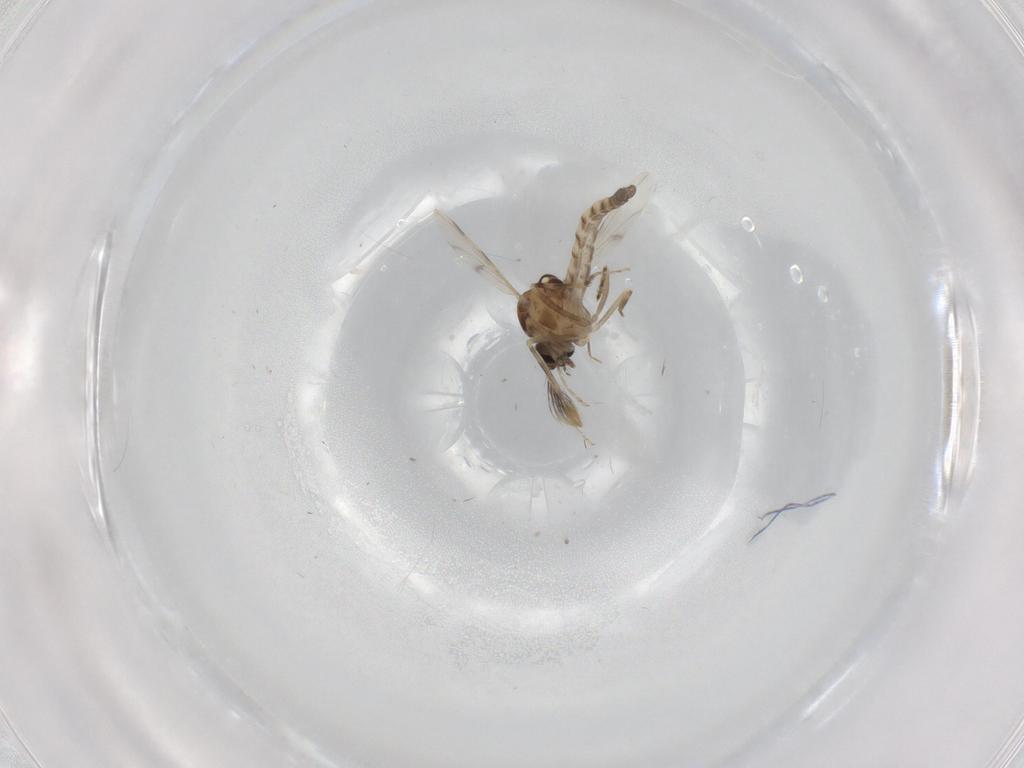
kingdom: Animalia
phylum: Arthropoda
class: Insecta
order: Diptera
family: Ceratopogonidae
